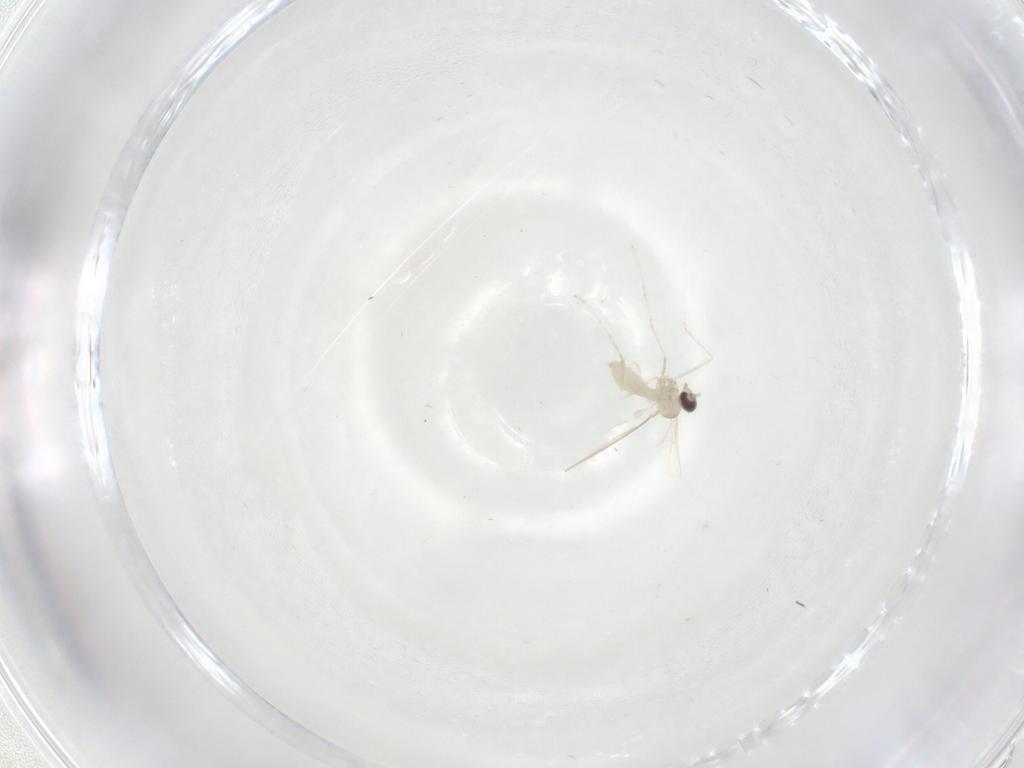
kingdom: Animalia
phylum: Arthropoda
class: Insecta
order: Diptera
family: Cecidomyiidae
